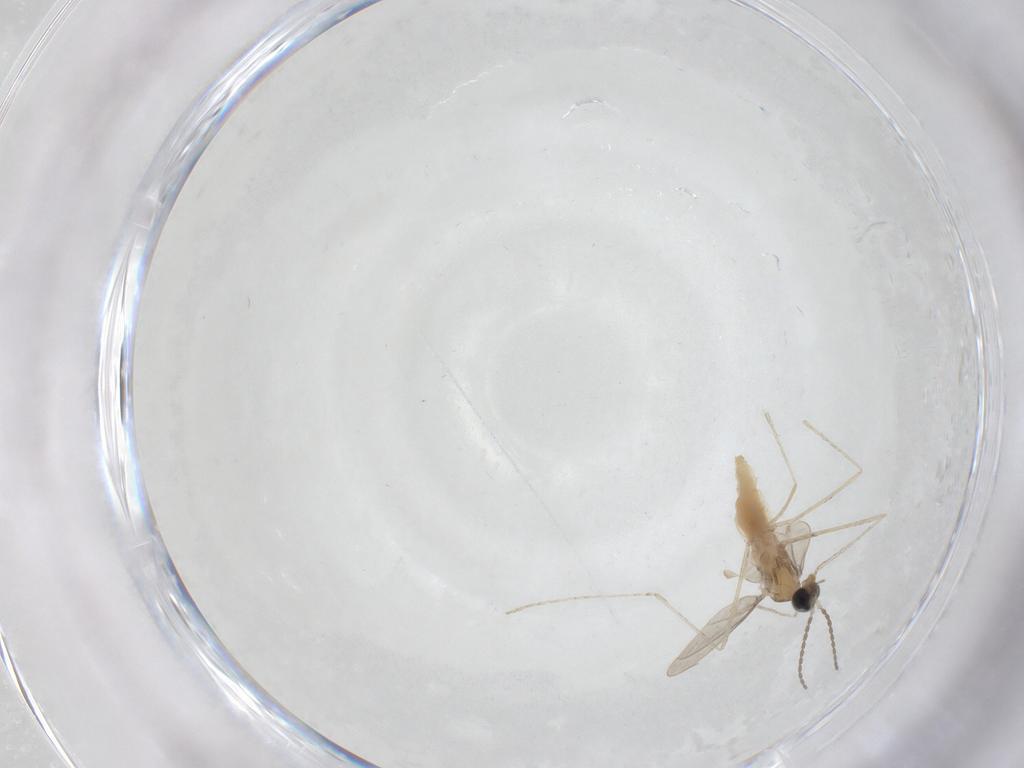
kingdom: Animalia
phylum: Arthropoda
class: Insecta
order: Diptera
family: Cecidomyiidae
